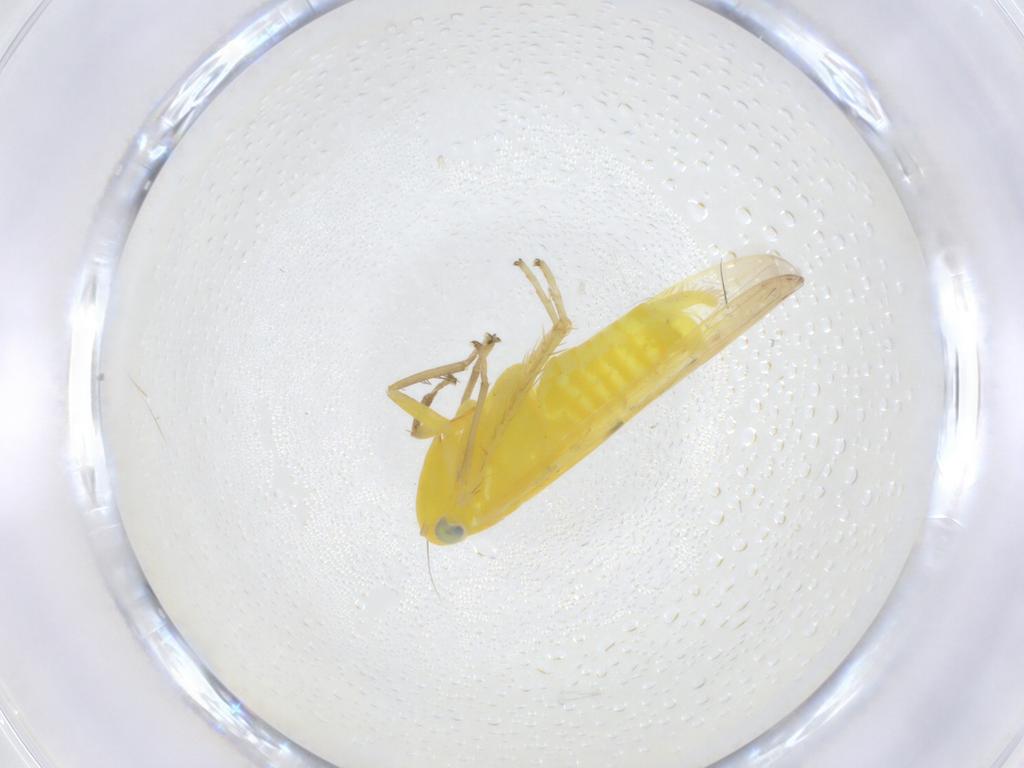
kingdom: Animalia
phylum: Arthropoda
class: Insecta
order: Hemiptera
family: Cicadellidae
